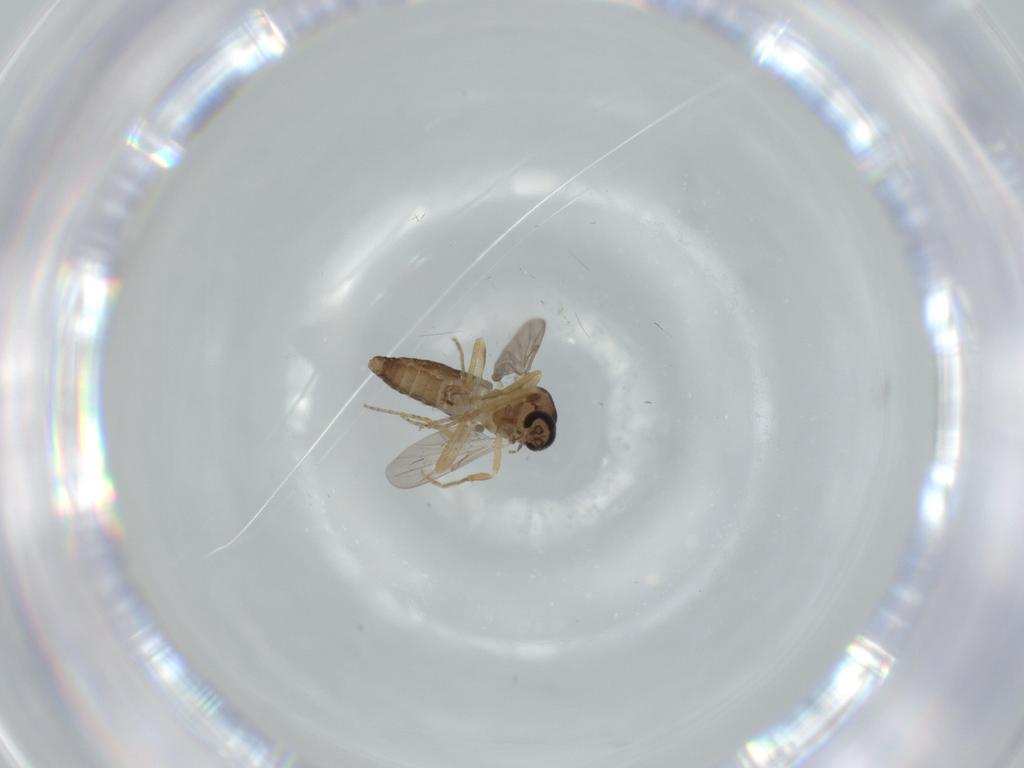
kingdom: Animalia
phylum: Arthropoda
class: Insecta
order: Diptera
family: Ceratopogonidae
